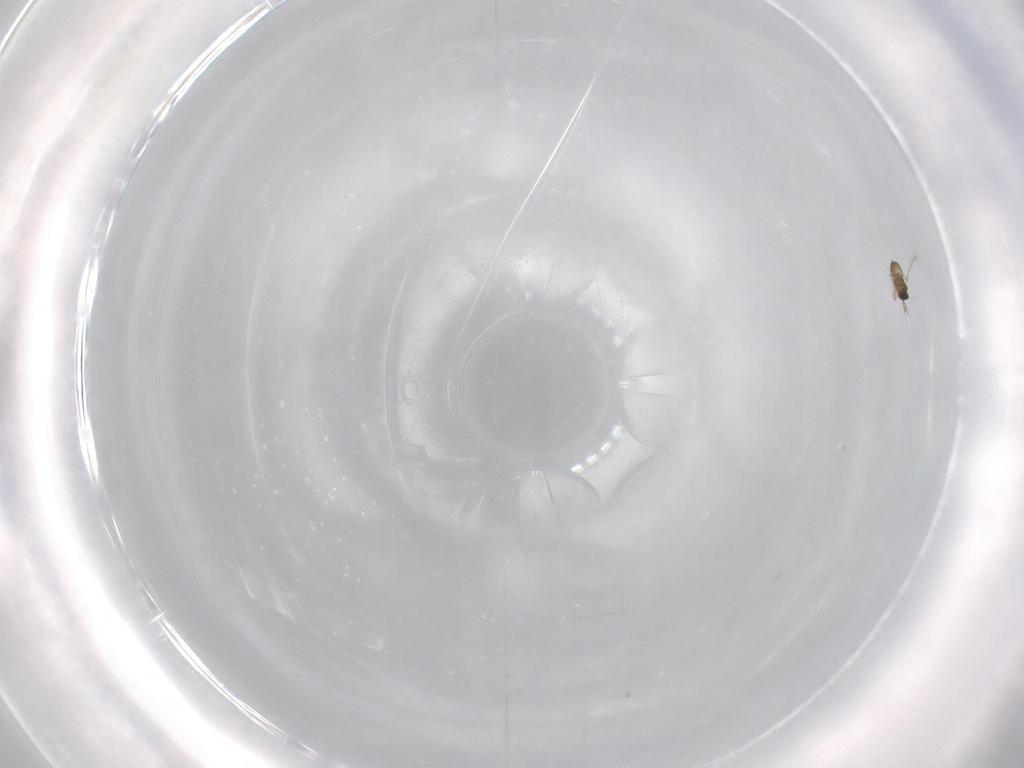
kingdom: Animalia
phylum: Arthropoda
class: Insecta
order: Hymenoptera
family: Mymaridae
